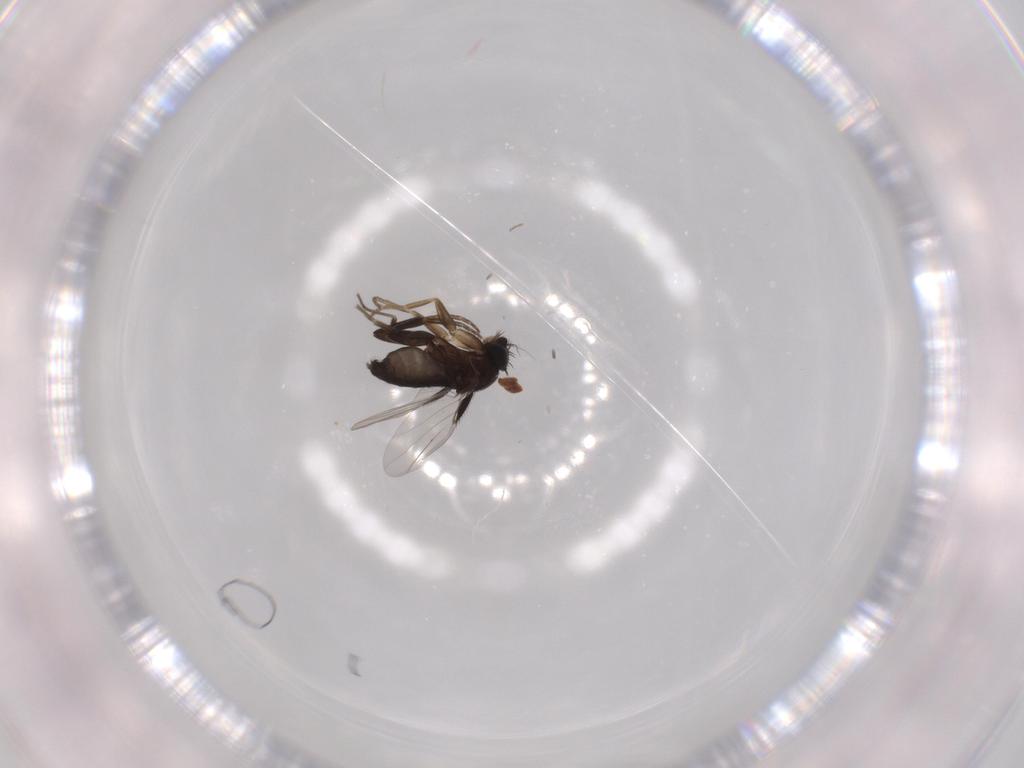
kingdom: Animalia
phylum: Arthropoda
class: Insecta
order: Diptera
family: Phoridae
